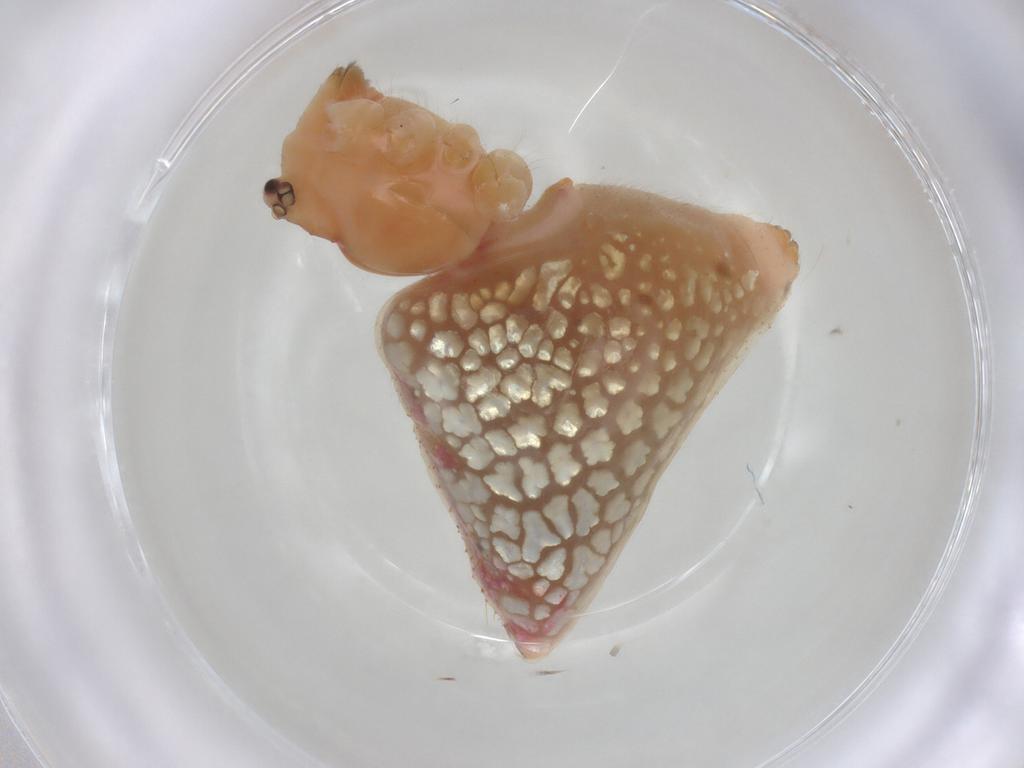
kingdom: Animalia
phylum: Arthropoda
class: Arachnida
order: Araneae
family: Theridiidae
